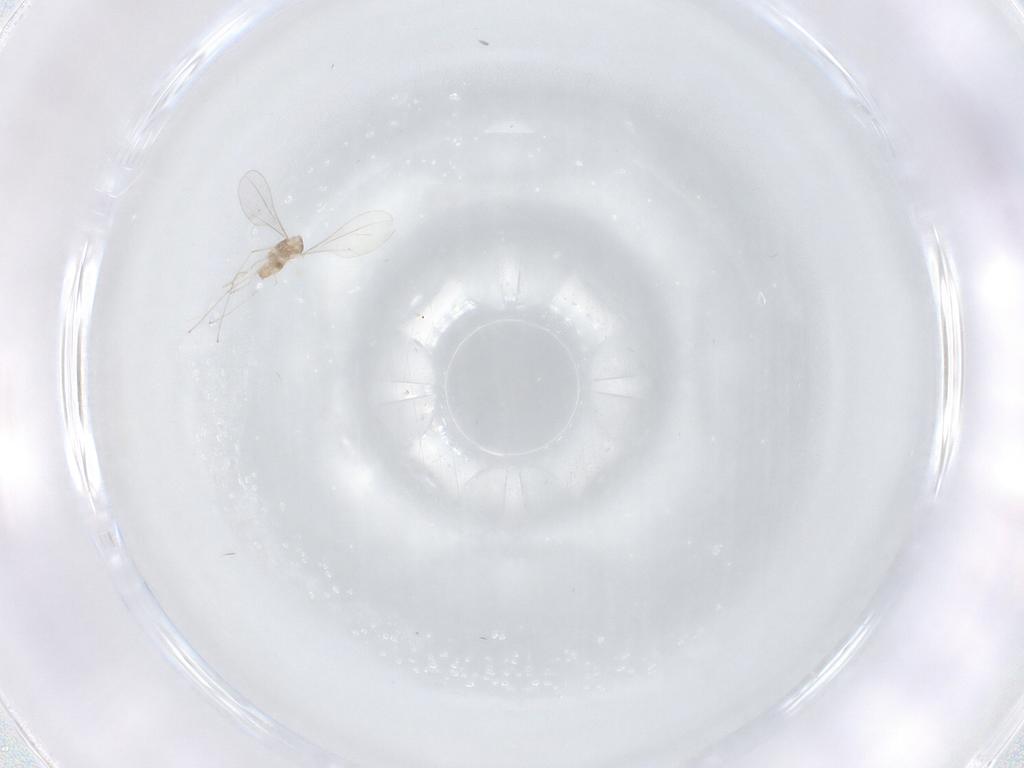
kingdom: Animalia
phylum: Arthropoda
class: Insecta
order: Diptera
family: Cecidomyiidae
